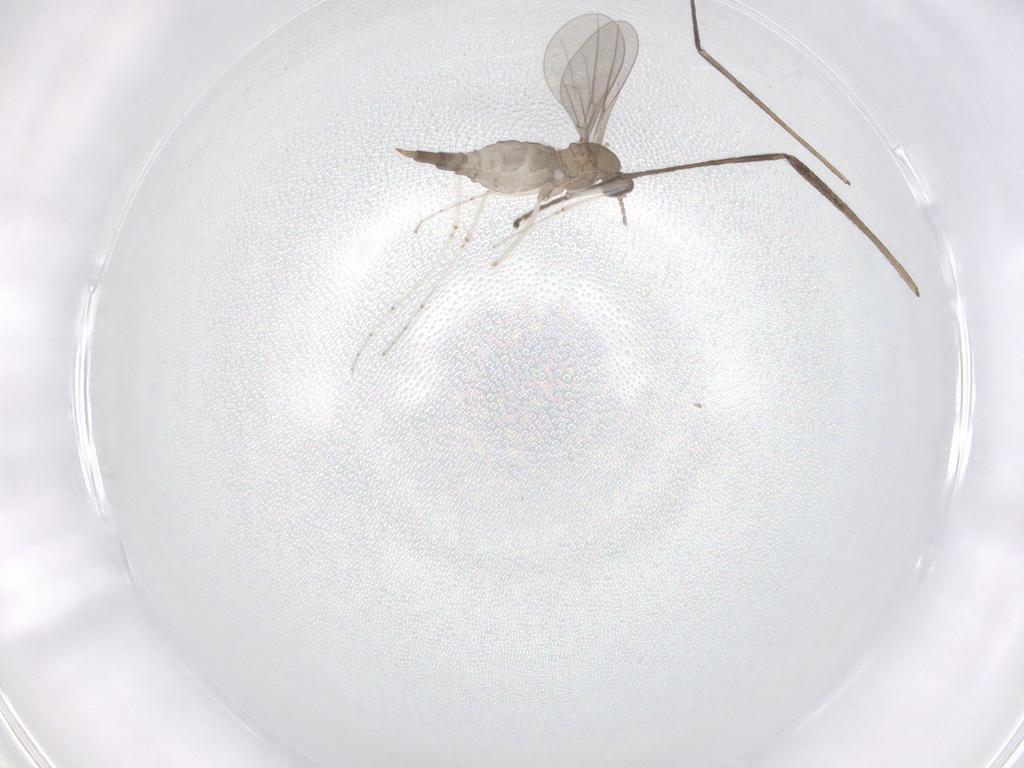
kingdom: Animalia
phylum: Arthropoda
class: Insecta
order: Diptera
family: Cecidomyiidae
